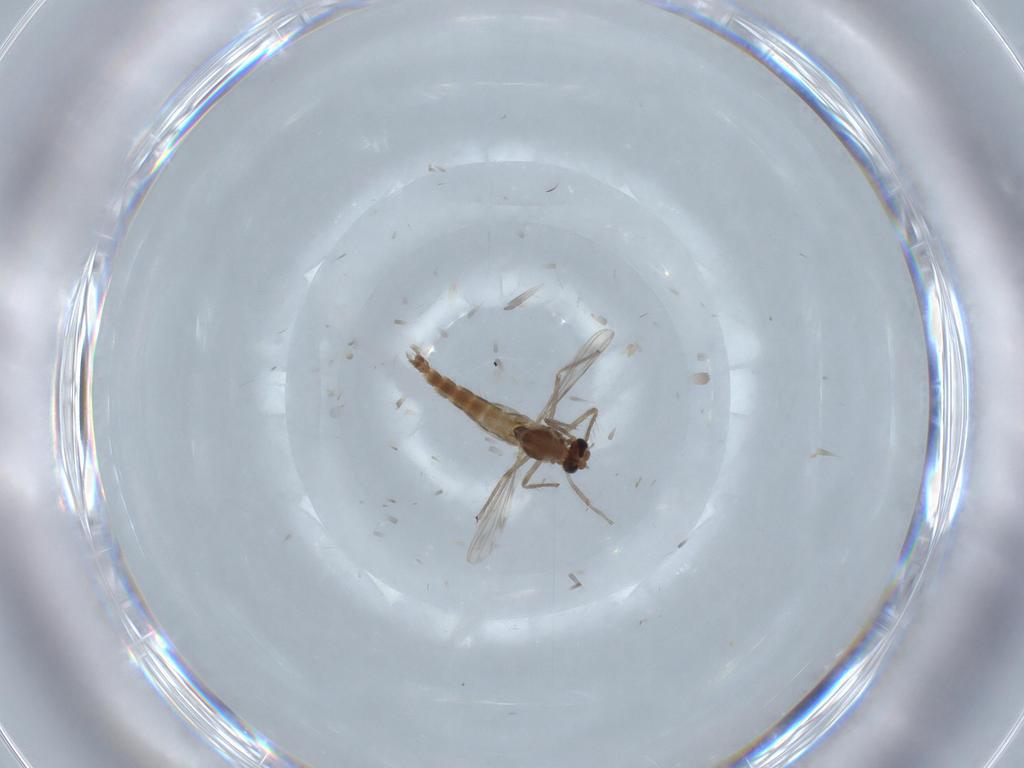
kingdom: Animalia
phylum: Arthropoda
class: Insecta
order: Diptera
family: Chironomidae
